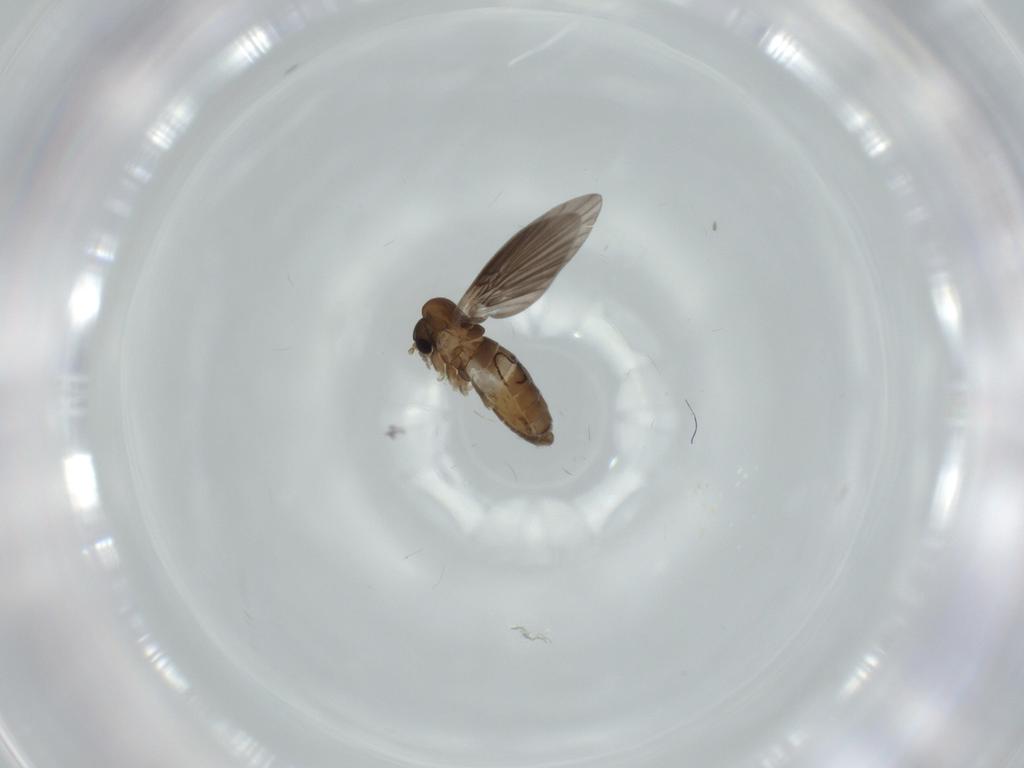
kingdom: Animalia
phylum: Arthropoda
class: Insecta
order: Diptera
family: Psychodidae
